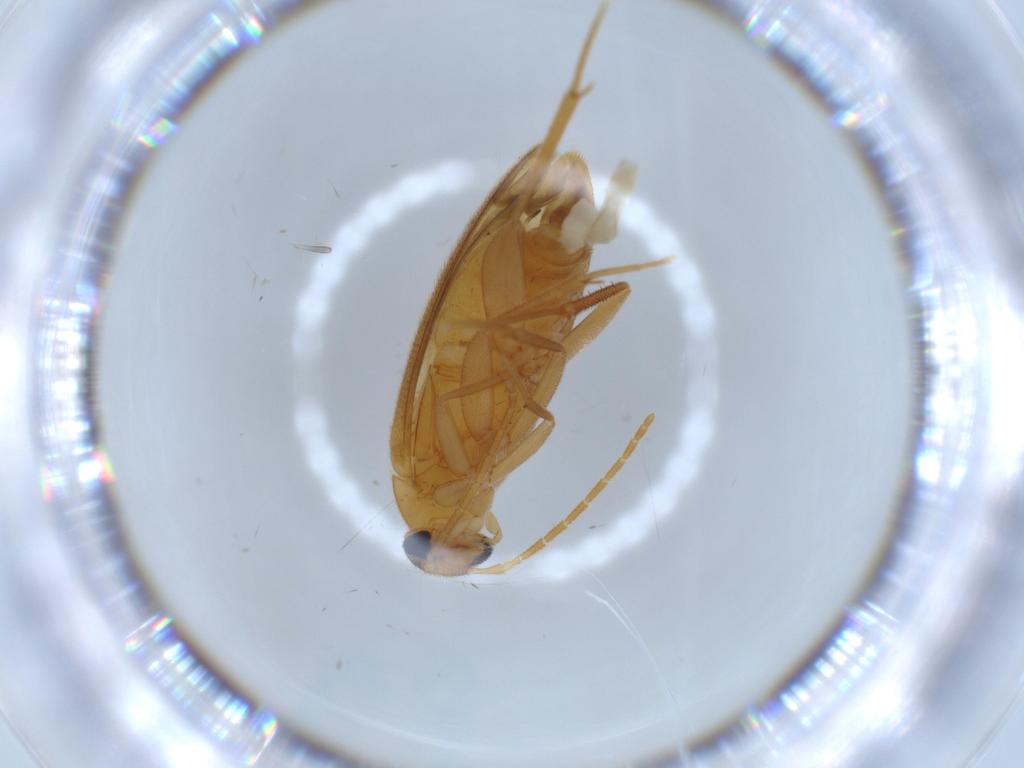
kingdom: Animalia
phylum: Arthropoda
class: Insecta
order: Coleoptera
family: Scraptiidae
